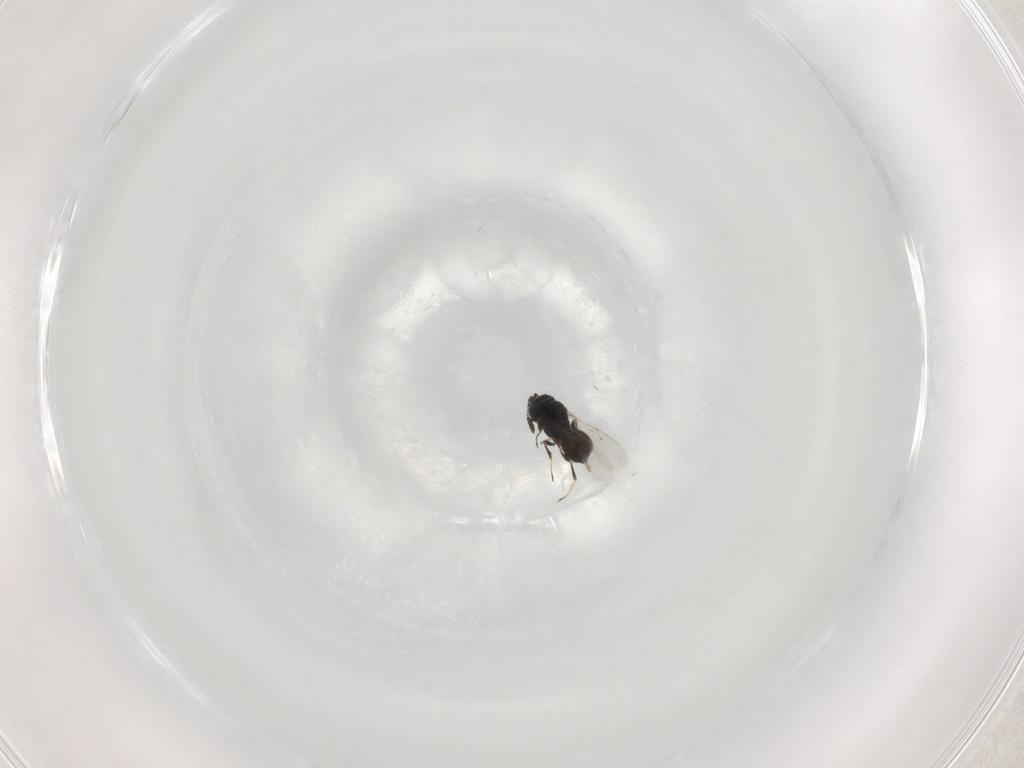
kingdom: Animalia
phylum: Arthropoda
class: Insecta
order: Hymenoptera
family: Scelionidae
